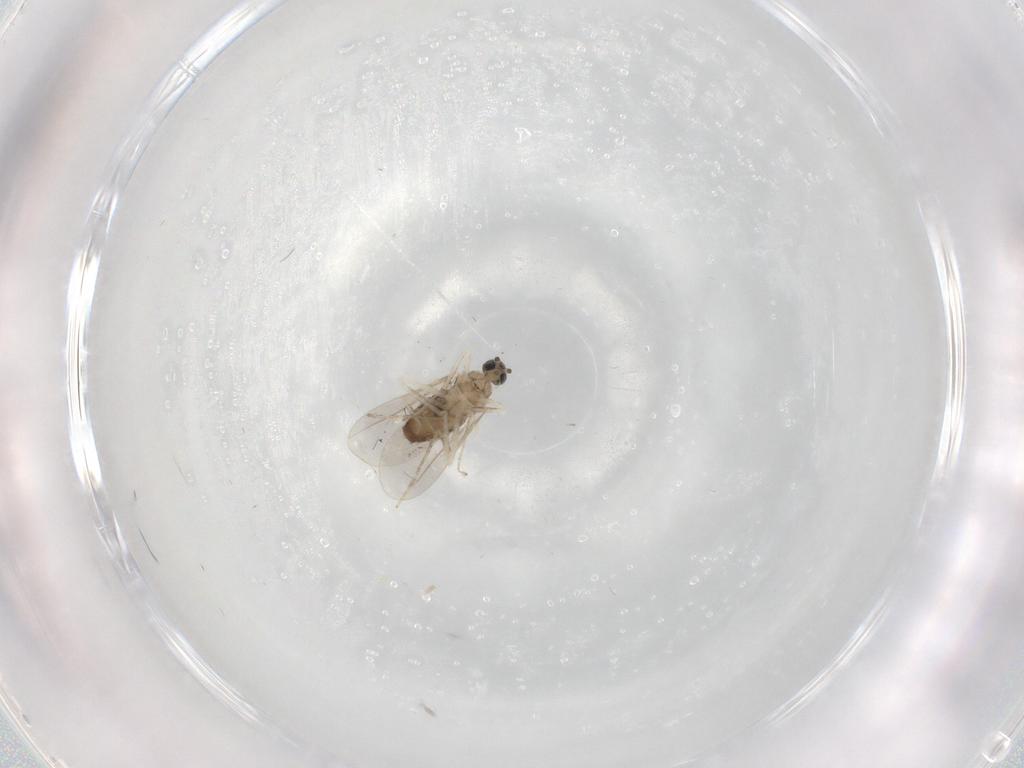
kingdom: Animalia
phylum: Arthropoda
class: Insecta
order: Diptera
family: Cecidomyiidae
